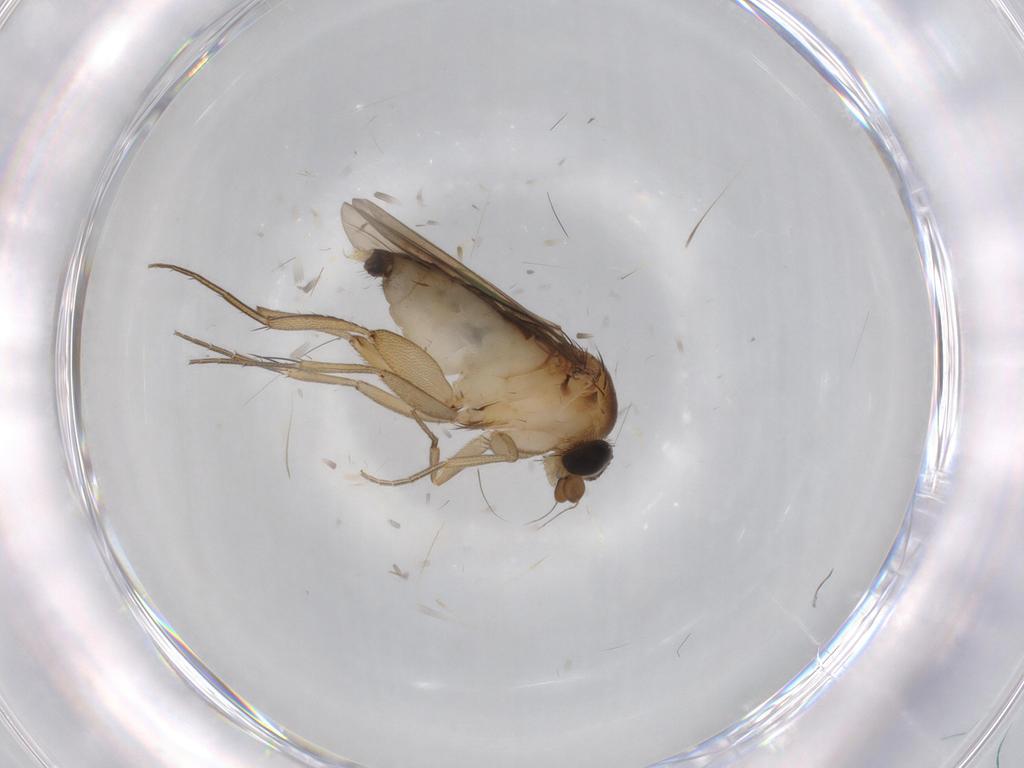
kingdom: Animalia
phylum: Arthropoda
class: Insecta
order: Diptera
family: Phoridae
